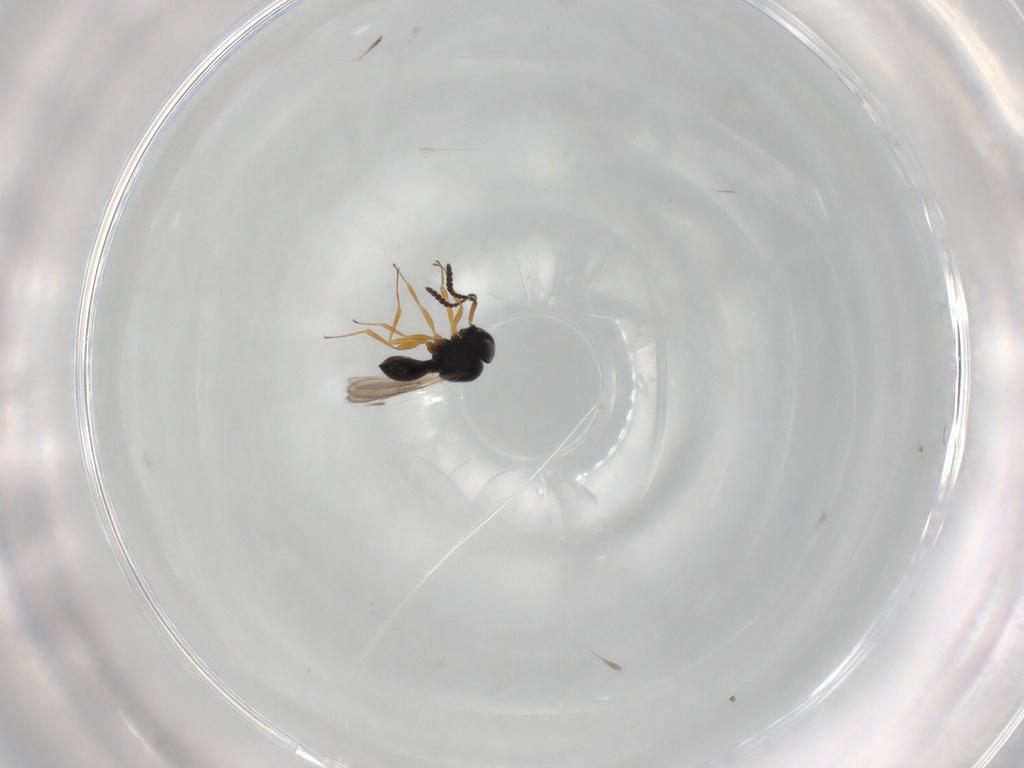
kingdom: Animalia
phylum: Arthropoda
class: Insecta
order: Hymenoptera
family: Scelionidae
